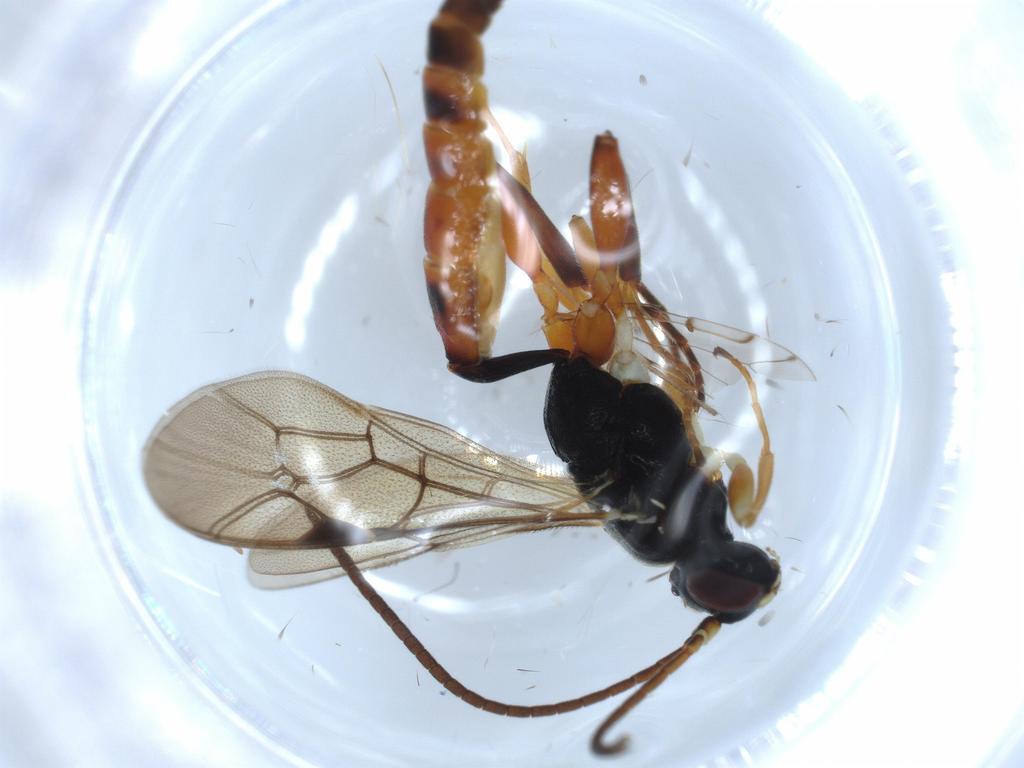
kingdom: Animalia
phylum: Arthropoda
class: Insecta
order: Hymenoptera
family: Ichneumonidae
